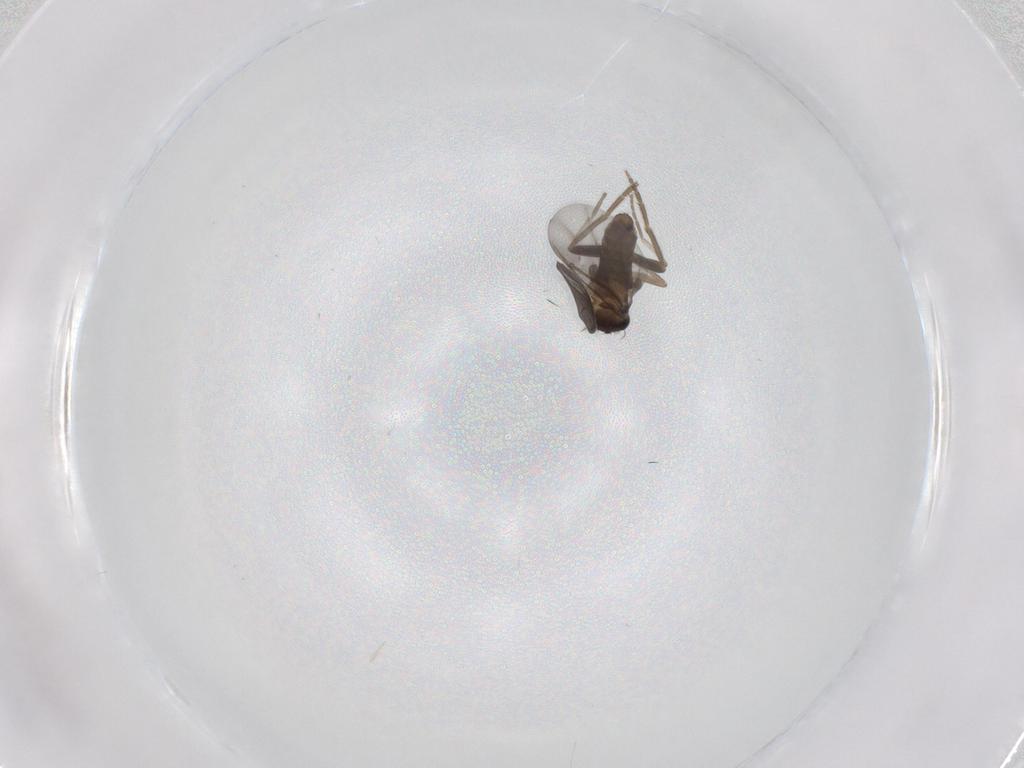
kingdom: Animalia
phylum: Arthropoda
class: Insecta
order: Diptera
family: Phoridae
